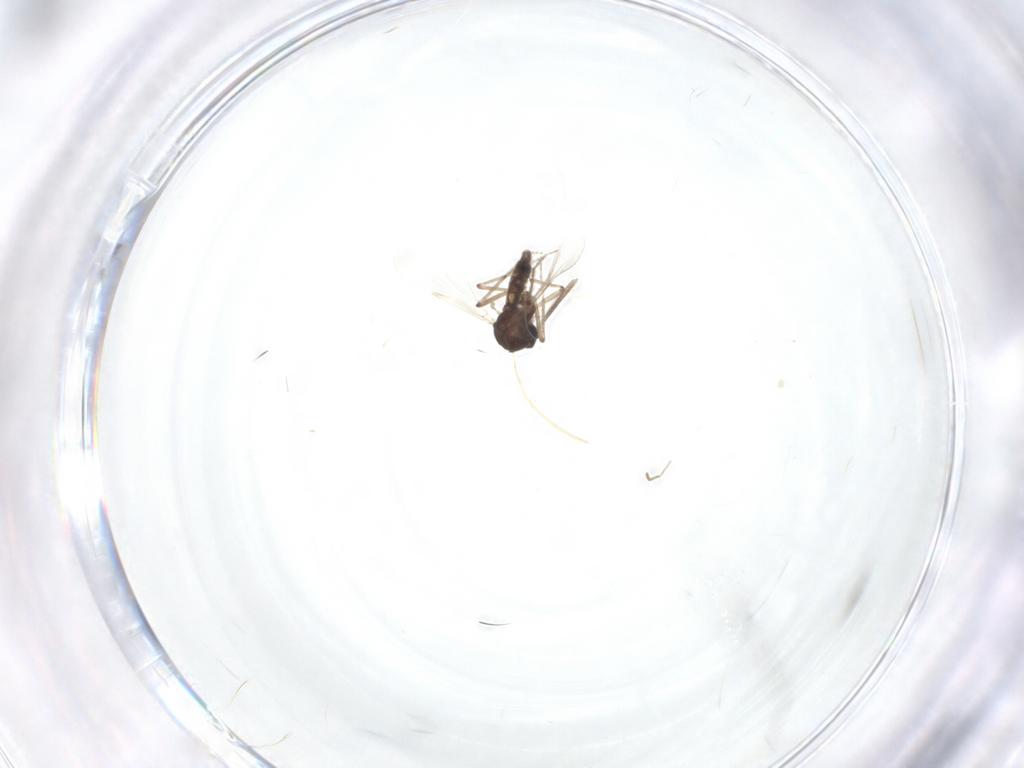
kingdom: Animalia
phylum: Arthropoda
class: Insecta
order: Diptera
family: Ceratopogonidae
